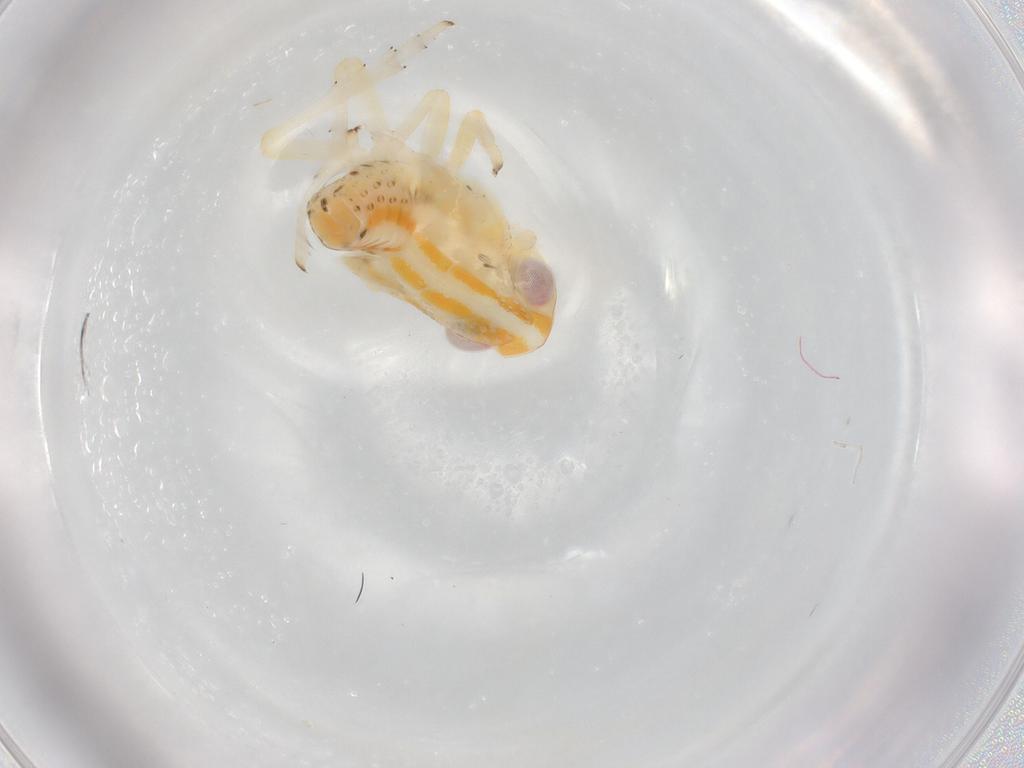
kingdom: Animalia
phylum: Arthropoda
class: Insecta
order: Hemiptera
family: Tropiduchidae
